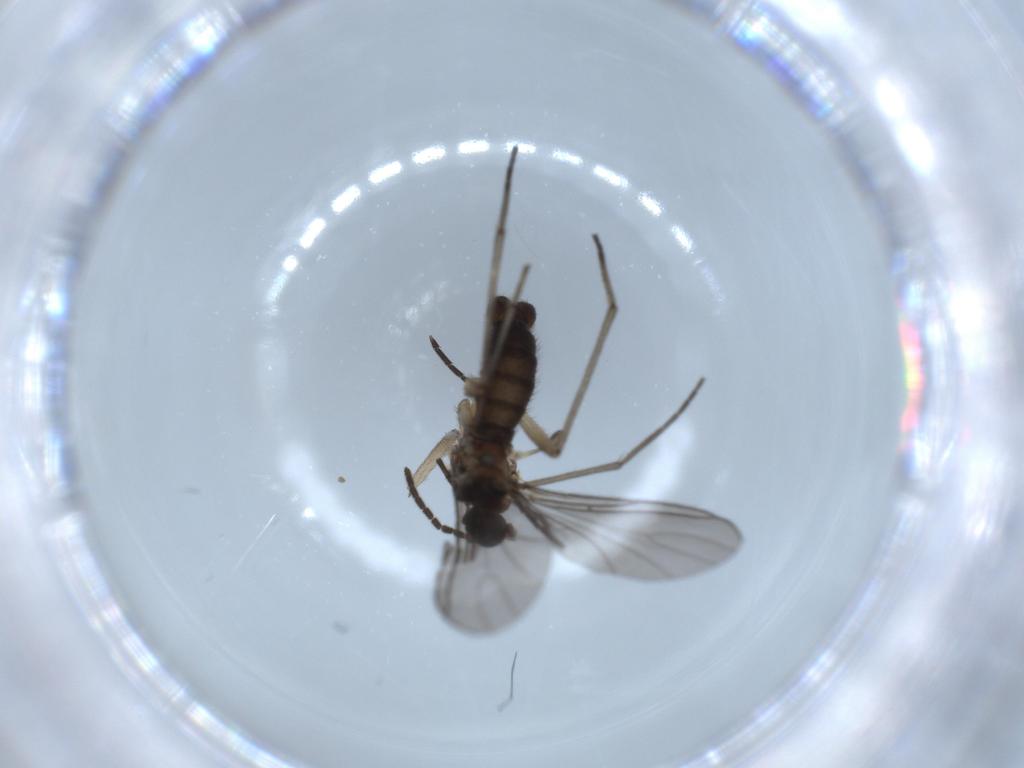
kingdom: Animalia
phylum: Arthropoda
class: Insecta
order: Diptera
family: Sciaridae
